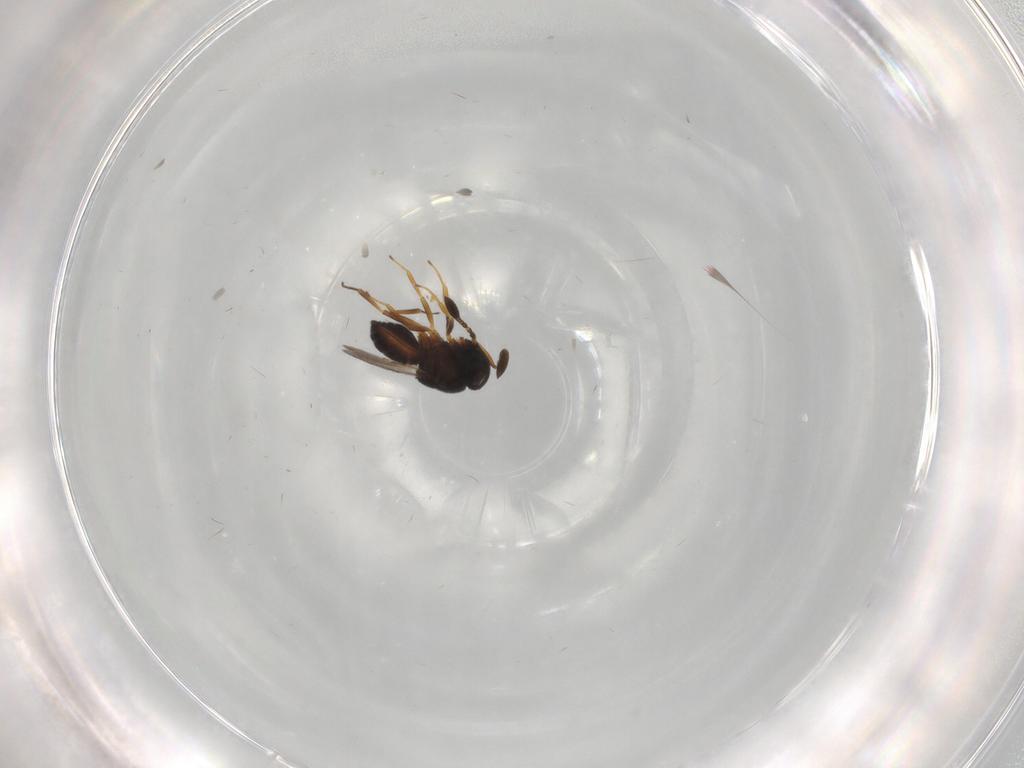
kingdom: Animalia
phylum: Arthropoda
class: Insecta
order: Hymenoptera
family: Scelionidae
